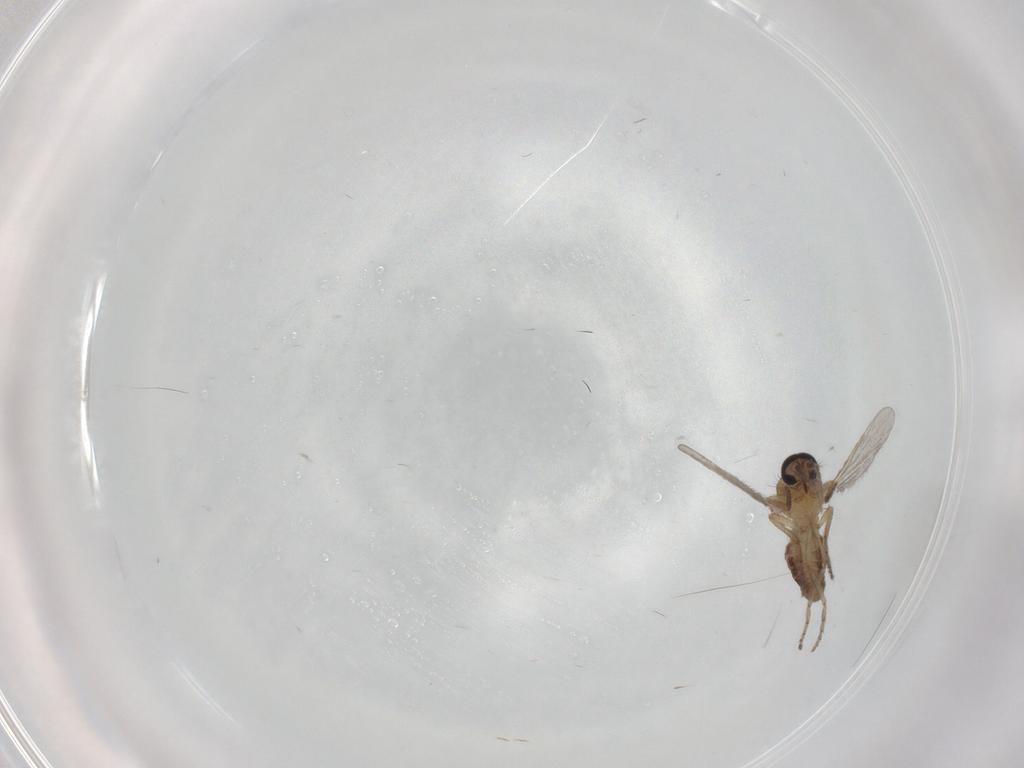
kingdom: Animalia
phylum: Arthropoda
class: Insecta
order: Diptera
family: Ceratopogonidae
